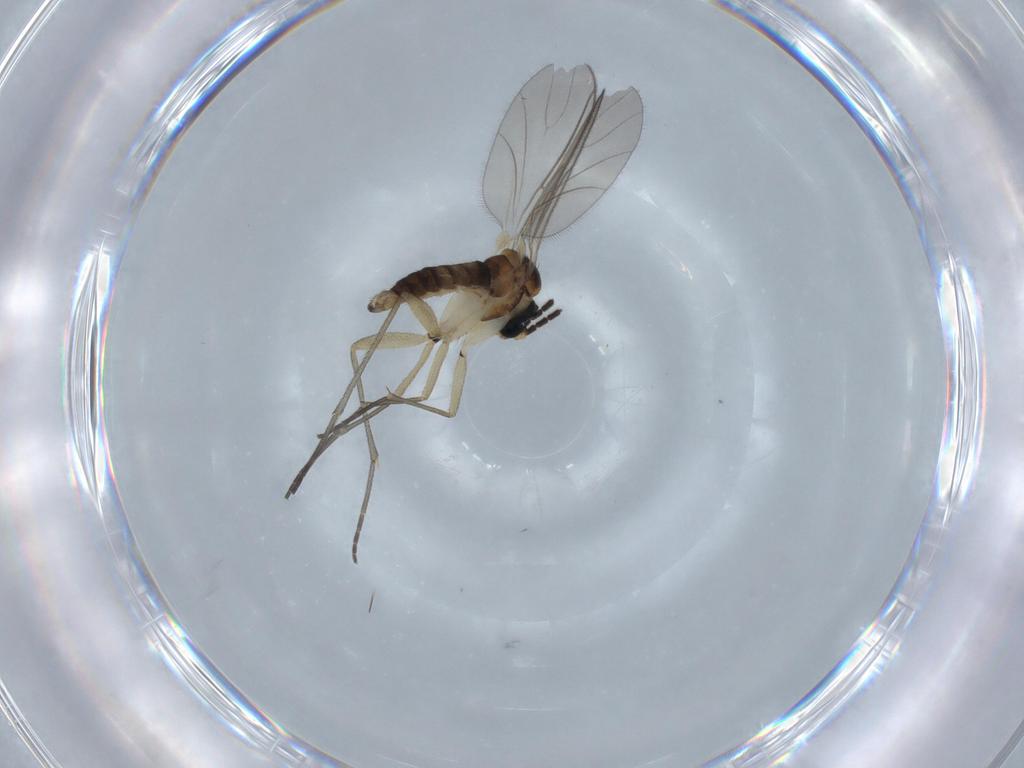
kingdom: Animalia
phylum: Arthropoda
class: Insecta
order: Diptera
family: Sciaridae
